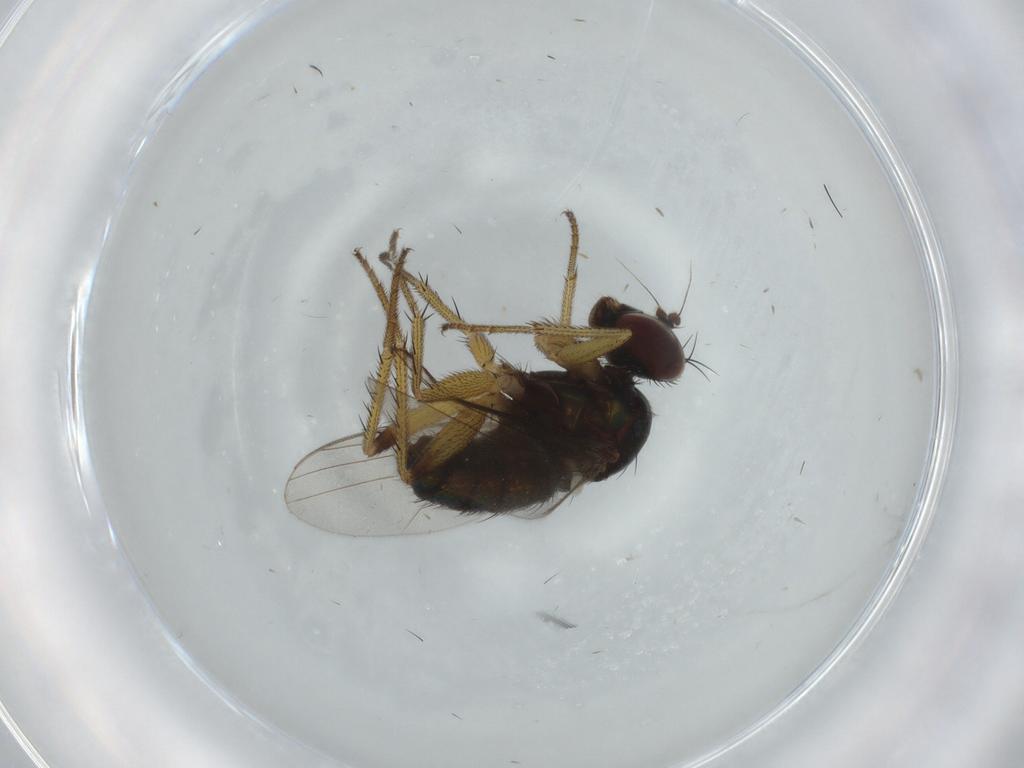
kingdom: Animalia
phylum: Arthropoda
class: Insecta
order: Diptera
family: Dolichopodidae
